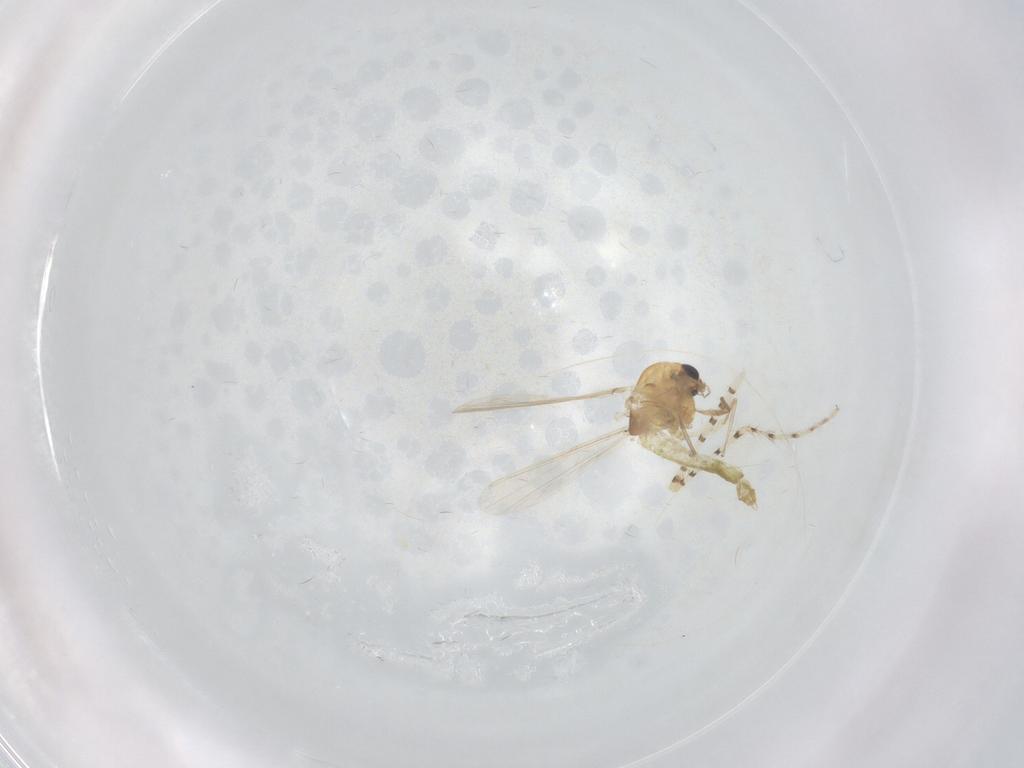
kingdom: Animalia
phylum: Arthropoda
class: Insecta
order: Diptera
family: Chironomidae
